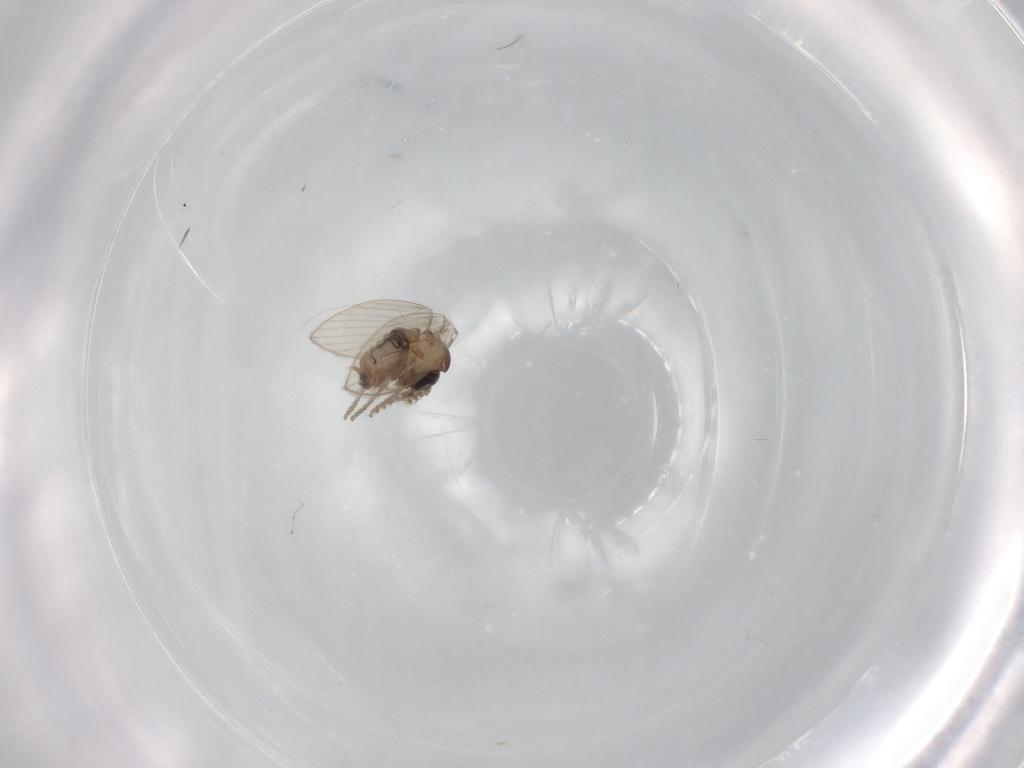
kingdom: Animalia
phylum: Arthropoda
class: Insecta
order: Diptera
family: Psychodidae
